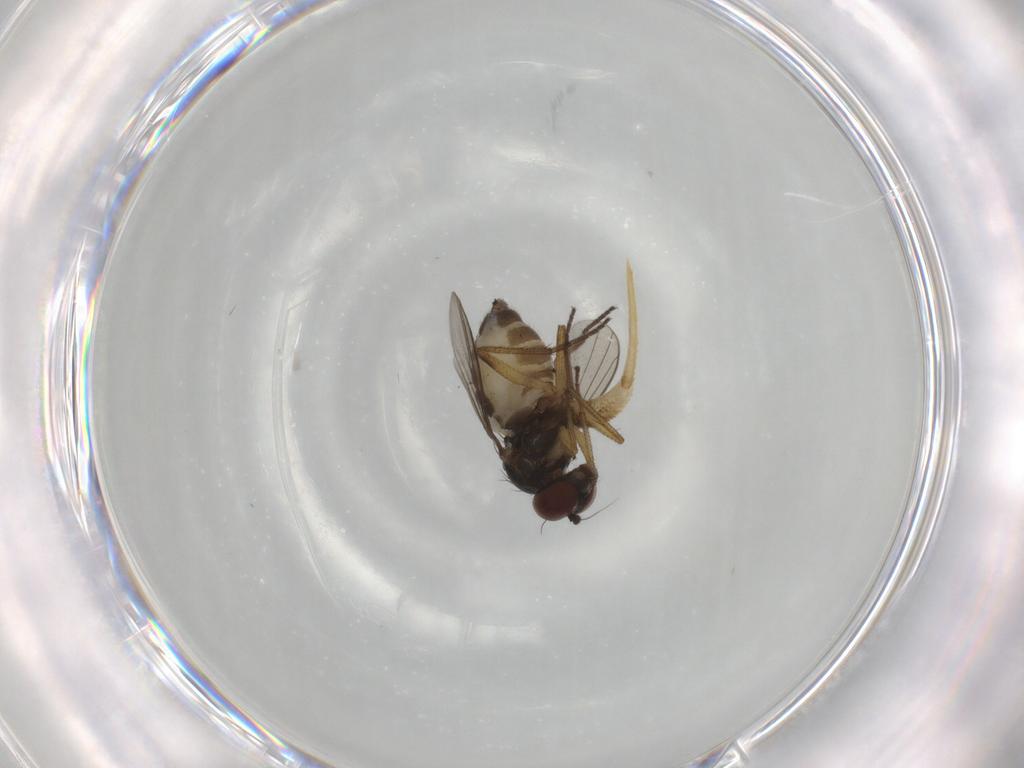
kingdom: Animalia
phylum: Arthropoda
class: Insecta
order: Diptera
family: Dolichopodidae
